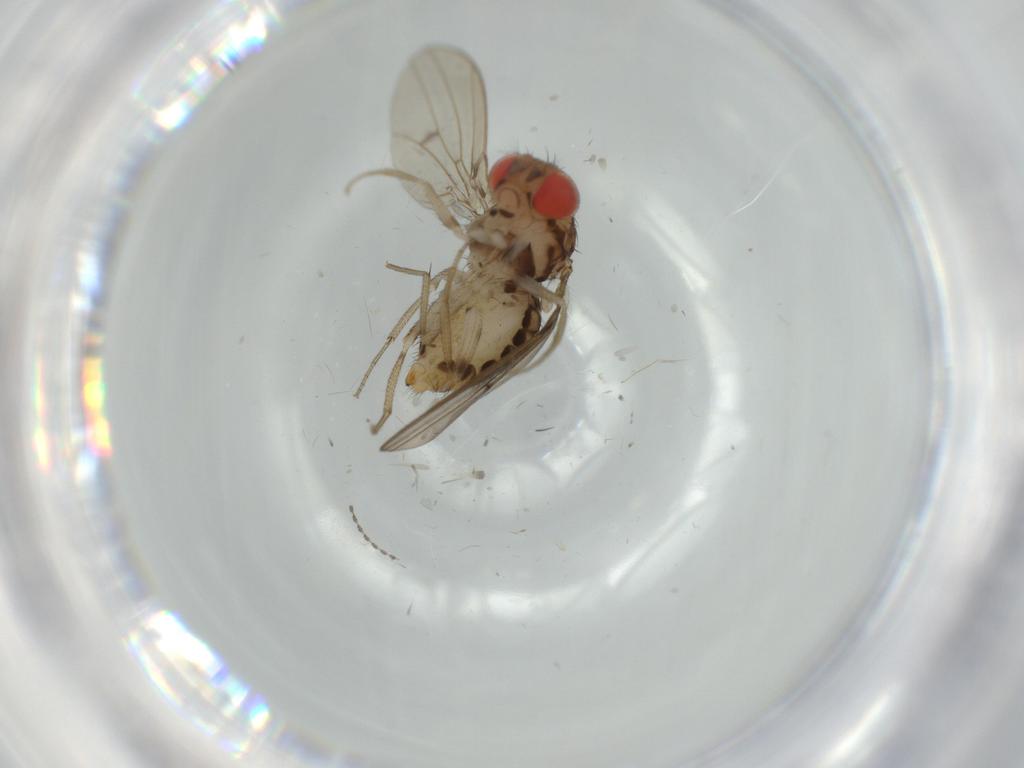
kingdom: Animalia
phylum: Arthropoda
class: Insecta
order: Diptera
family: Drosophilidae
